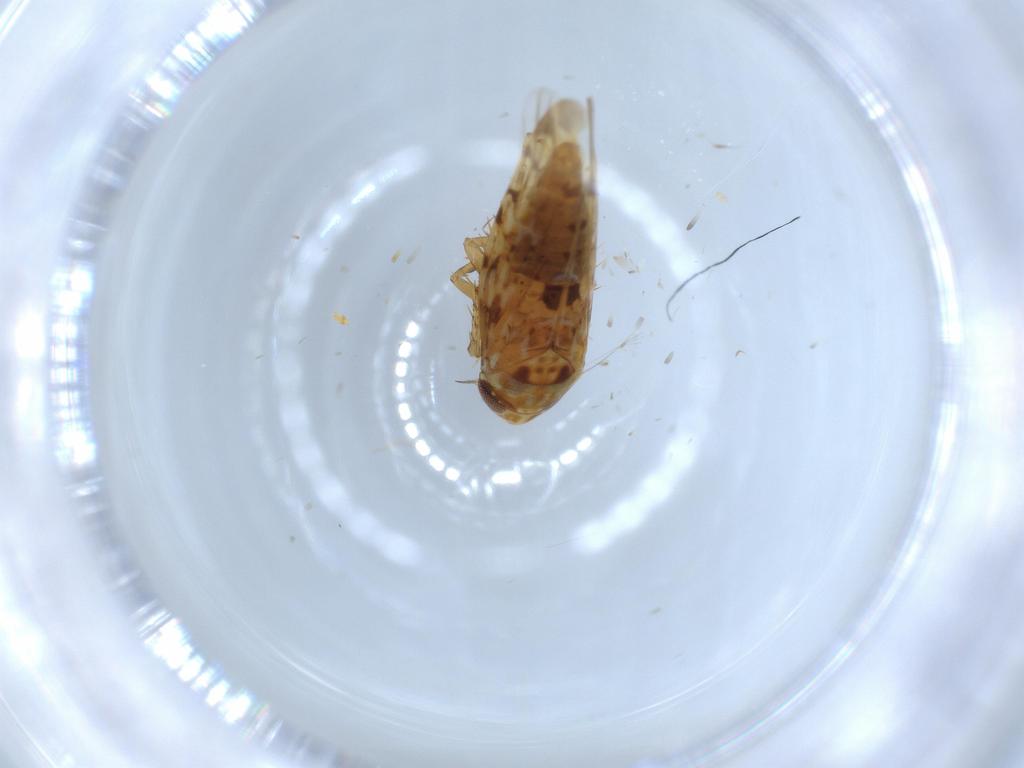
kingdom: Animalia
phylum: Arthropoda
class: Insecta
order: Hemiptera
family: Cicadellidae
